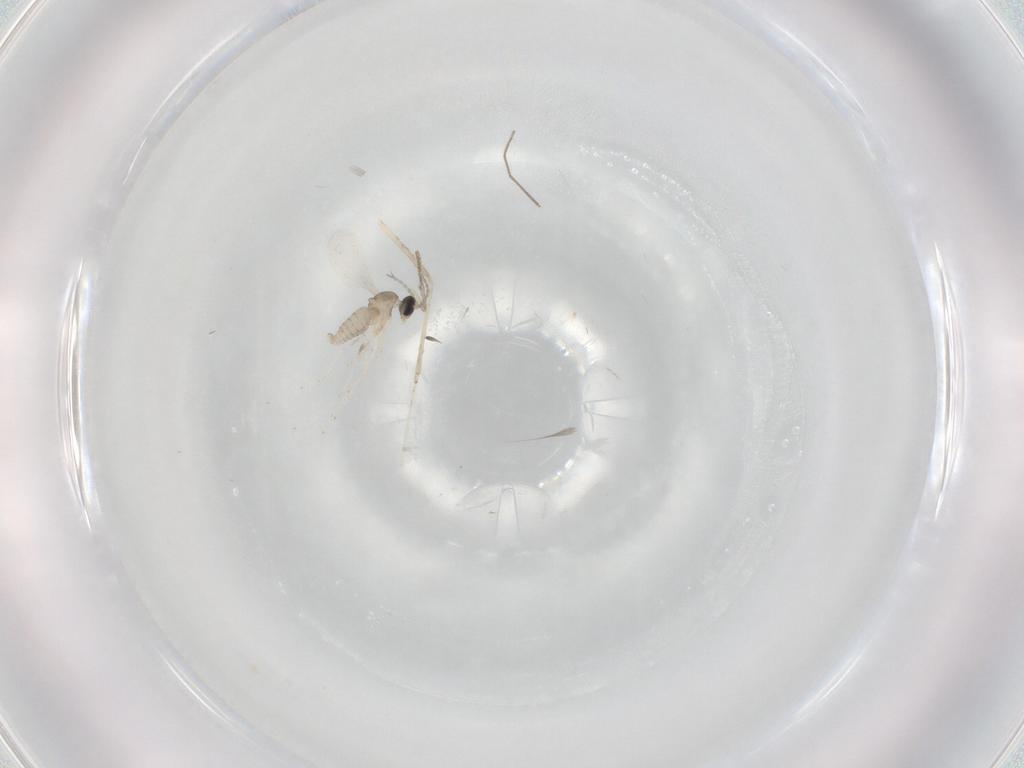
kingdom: Animalia
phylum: Arthropoda
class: Insecta
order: Diptera
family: Cecidomyiidae
